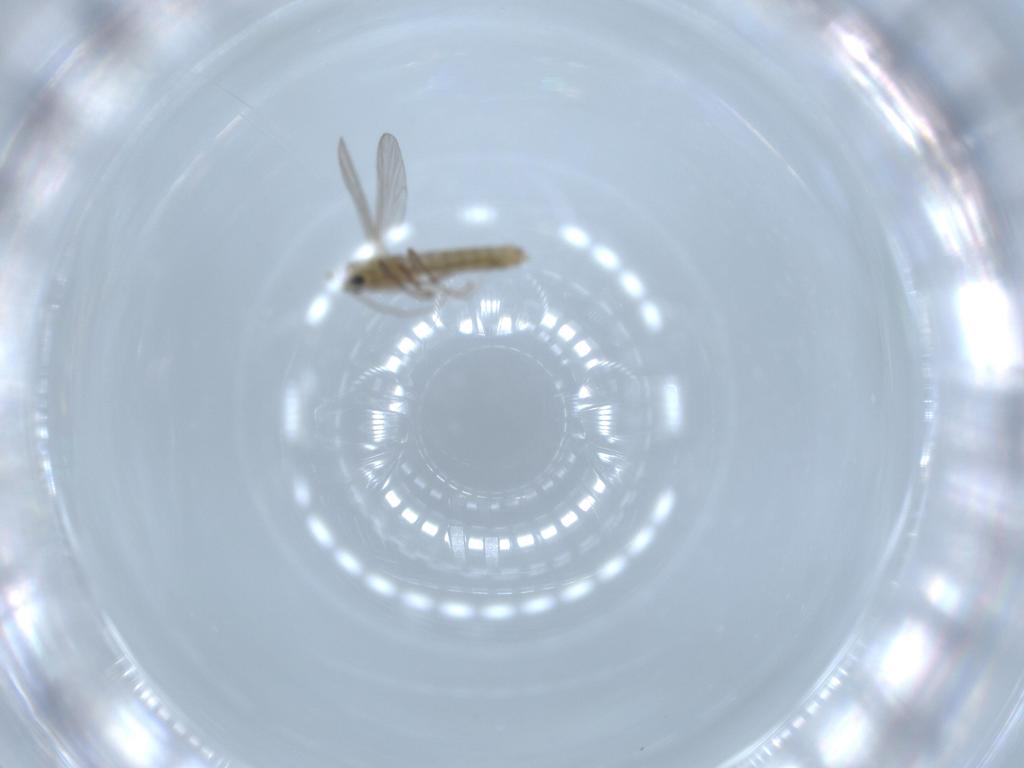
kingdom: Animalia
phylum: Arthropoda
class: Insecta
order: Diptera
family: Chironomidae
